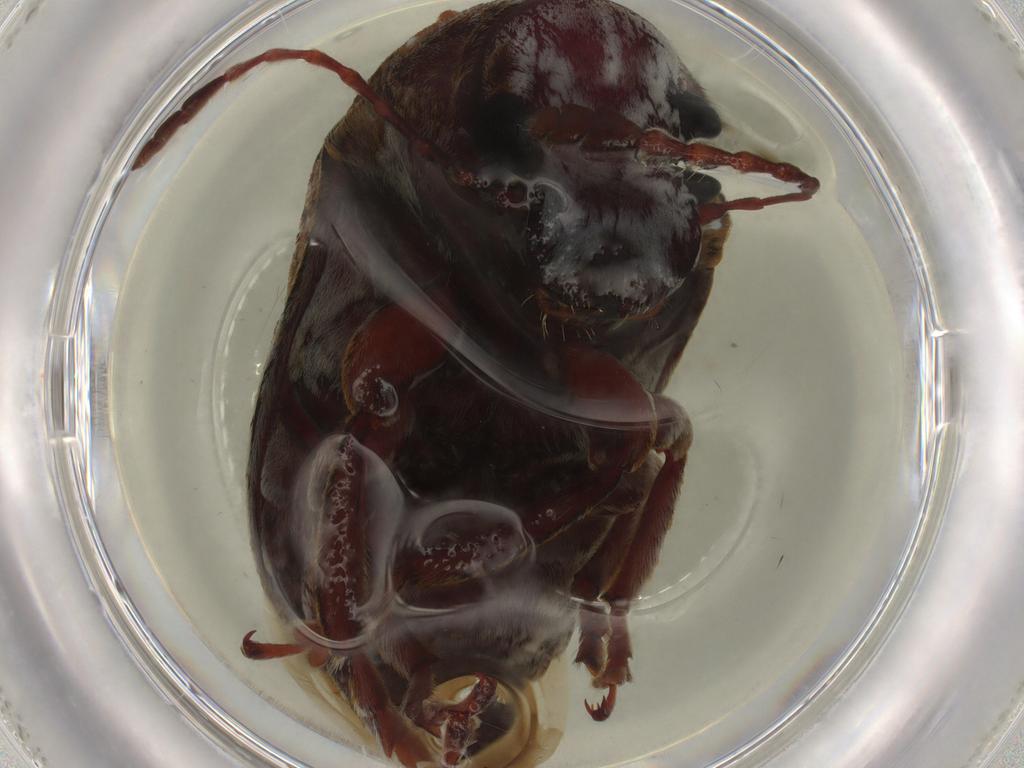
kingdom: Animalia
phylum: Arthropoda
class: Insecta
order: Coleoptera
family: Anthribidae
